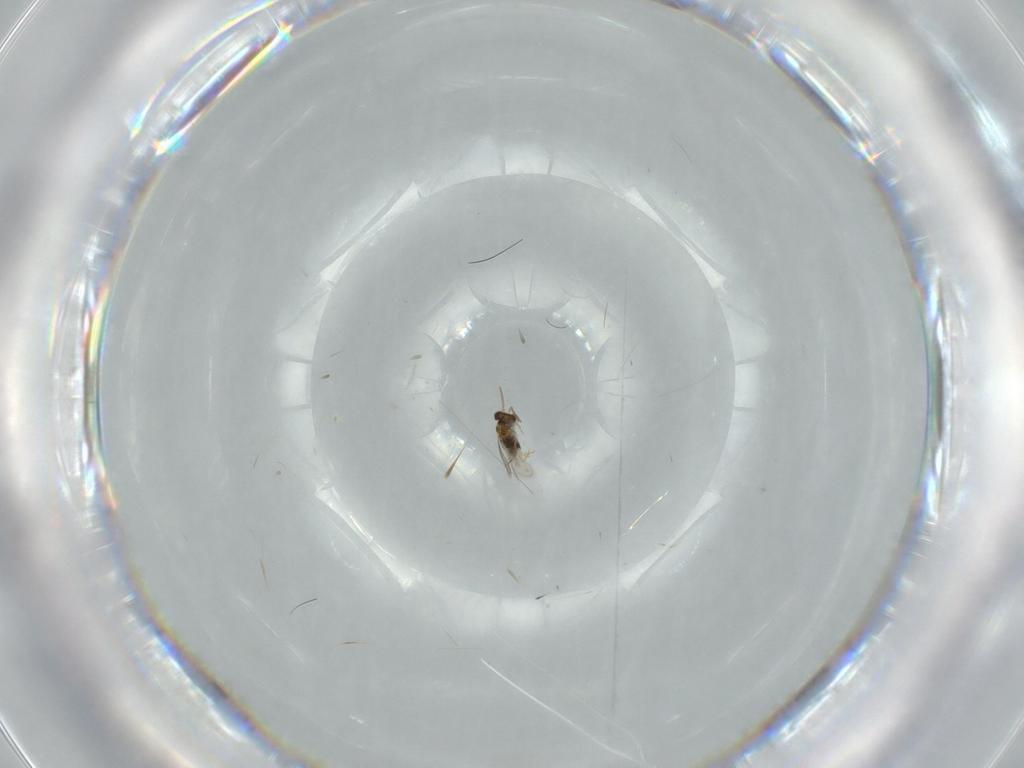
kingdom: Animalia
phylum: Arthropoda
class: Insecta
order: Hymenoptera
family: Aphelinidae
